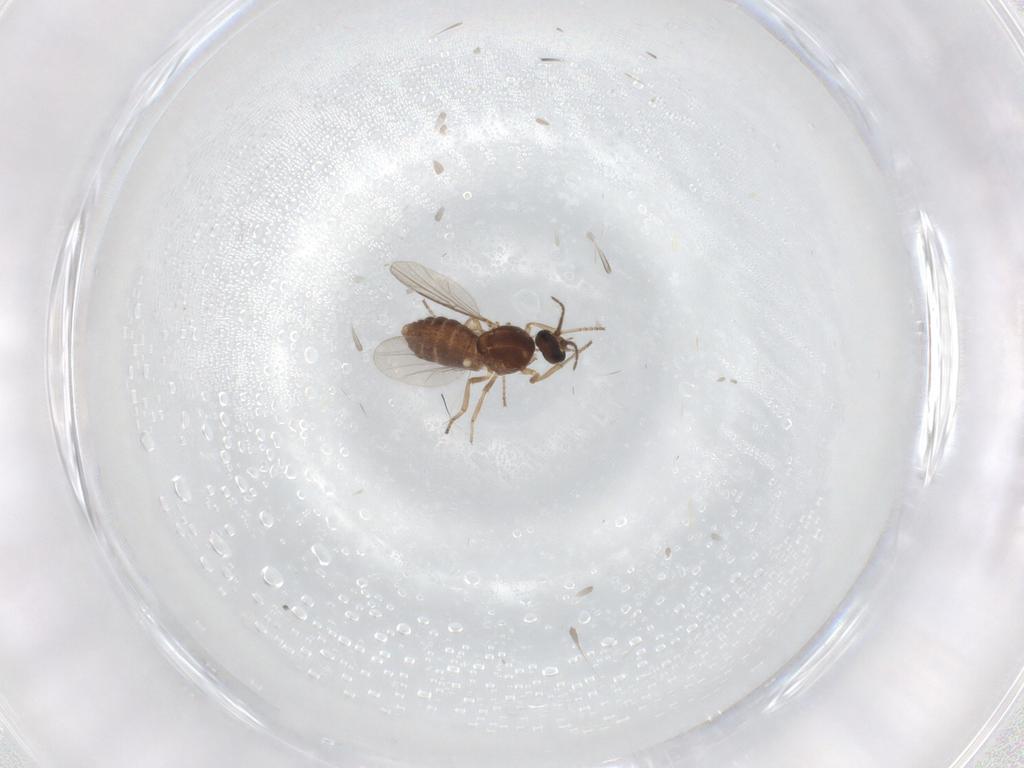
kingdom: Animalia
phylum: Arthropoda
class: Insecta
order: Diptera
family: Ceratopogonidae
